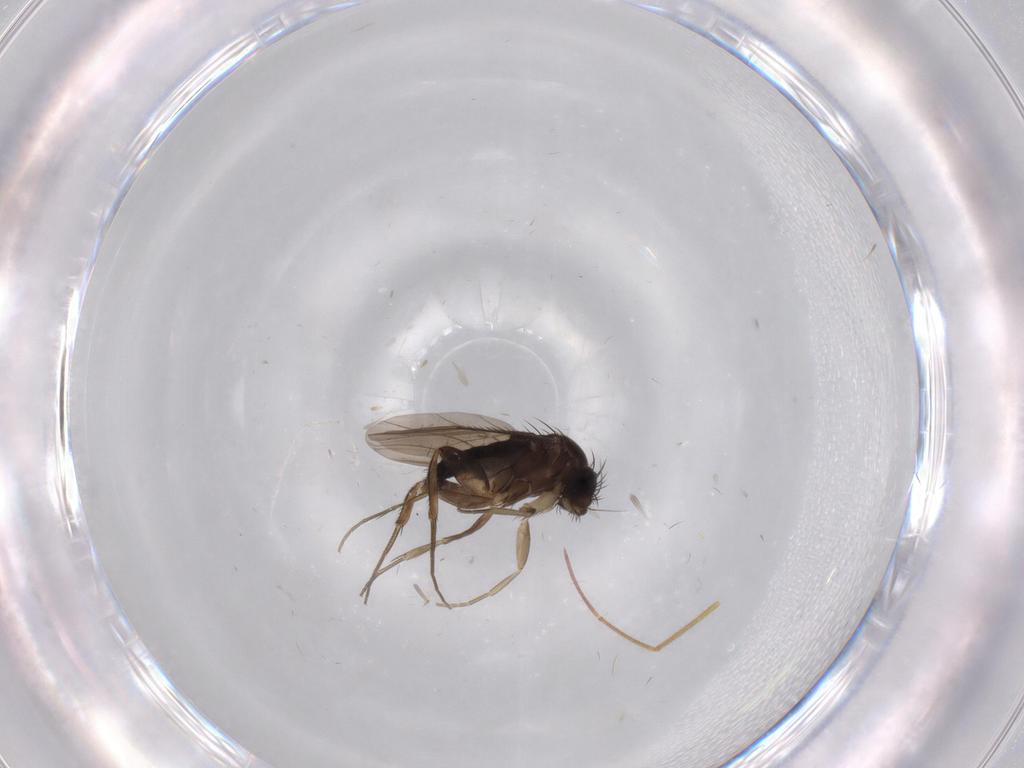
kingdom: Animalia
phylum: Arthropoda
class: Insecta
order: Diptera
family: Phoridae
